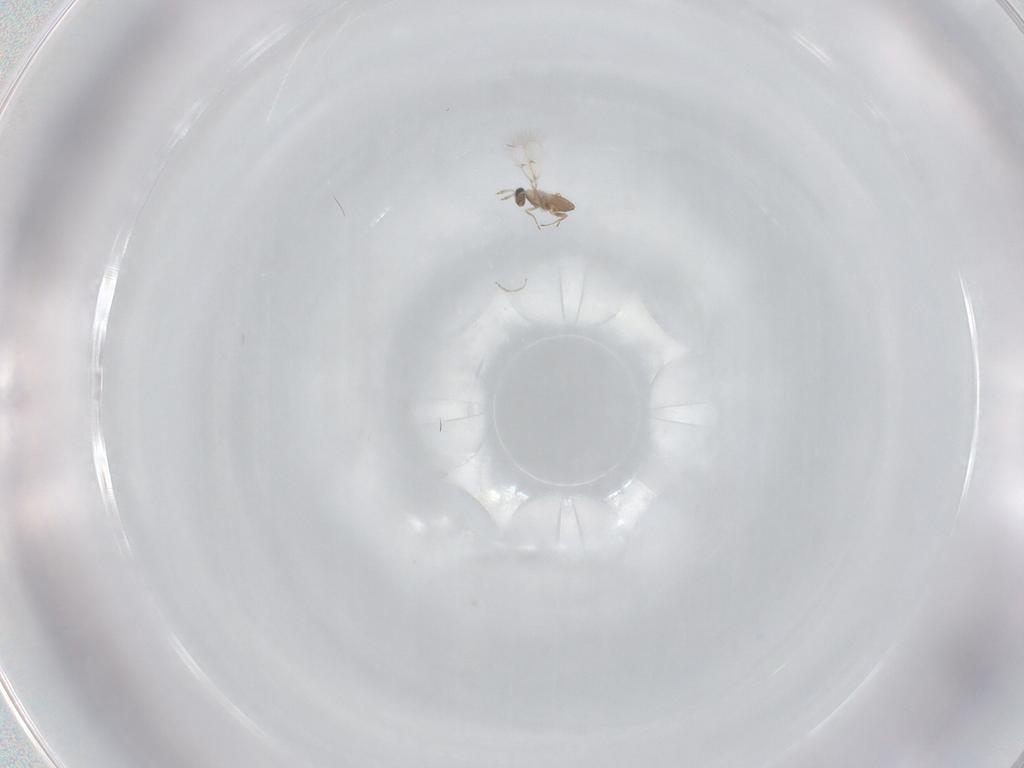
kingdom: Animalia
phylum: Arthropoda
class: Insecta
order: Hymenoptera
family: Trichogrammatidae
